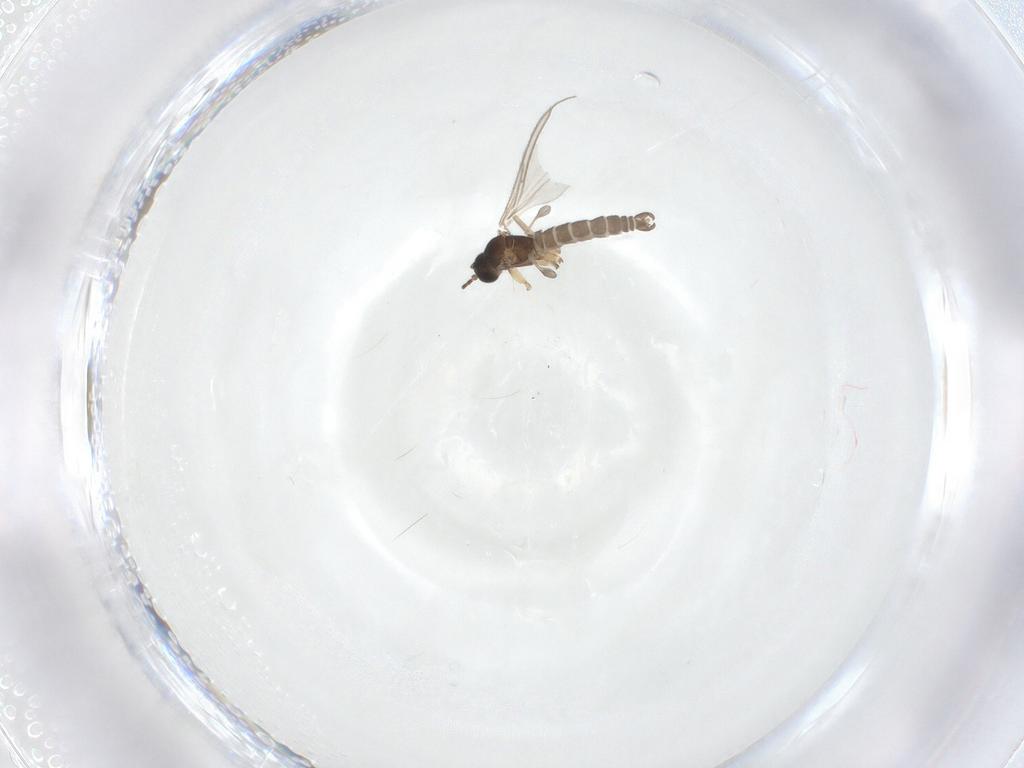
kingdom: Animalia
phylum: Arthropoda
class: Insecta
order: Diptera
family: Sciaridae
